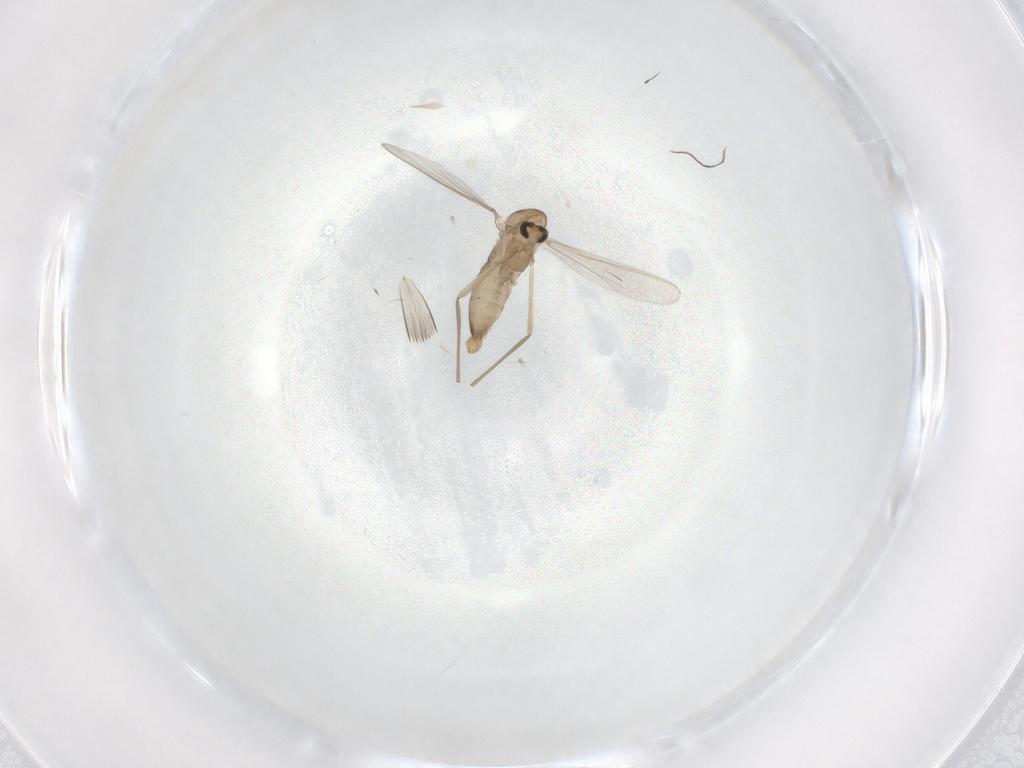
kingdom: Animalia
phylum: Arthropoda
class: Insecta
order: Diptera
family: Chironomidae
